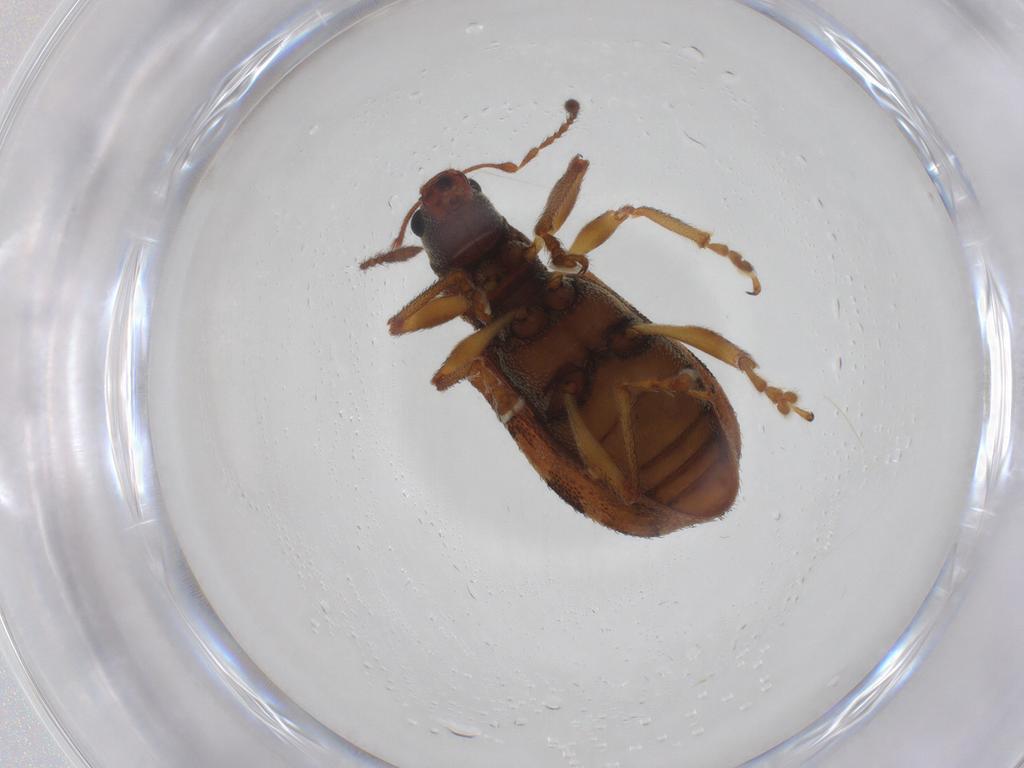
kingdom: Animalia
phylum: Arthropoda
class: Insecta
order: Coleoptera
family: Curculionidae
